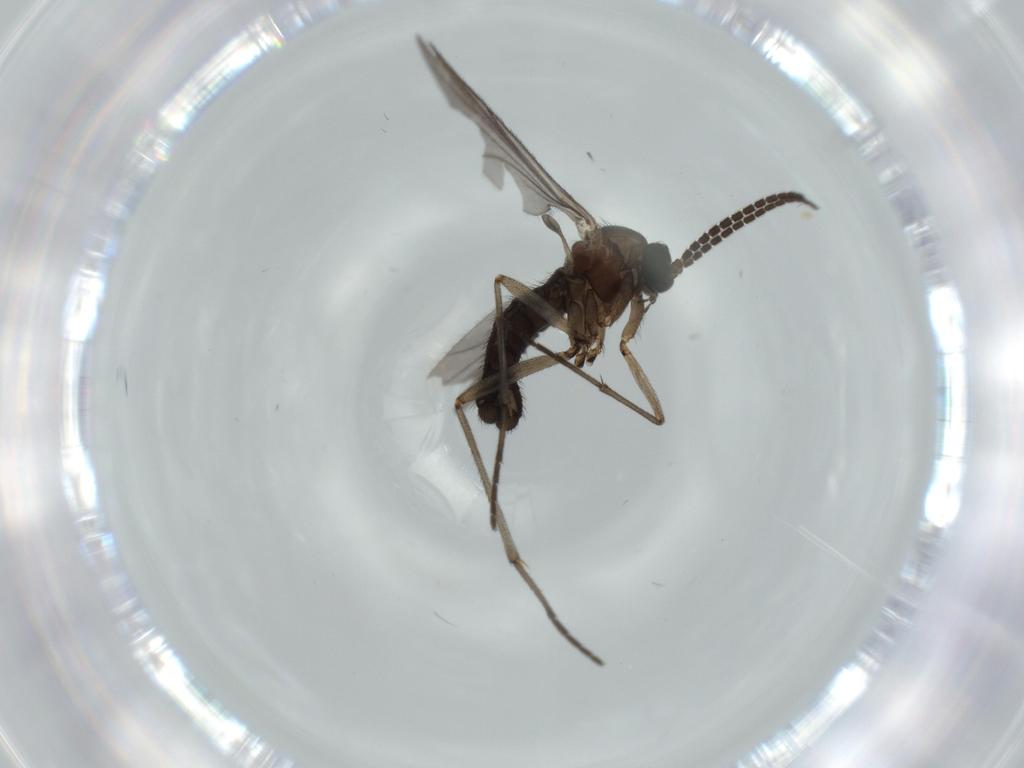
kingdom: Animalia
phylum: Arthropoda
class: Insecta
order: Diptera
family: Sciaridae
